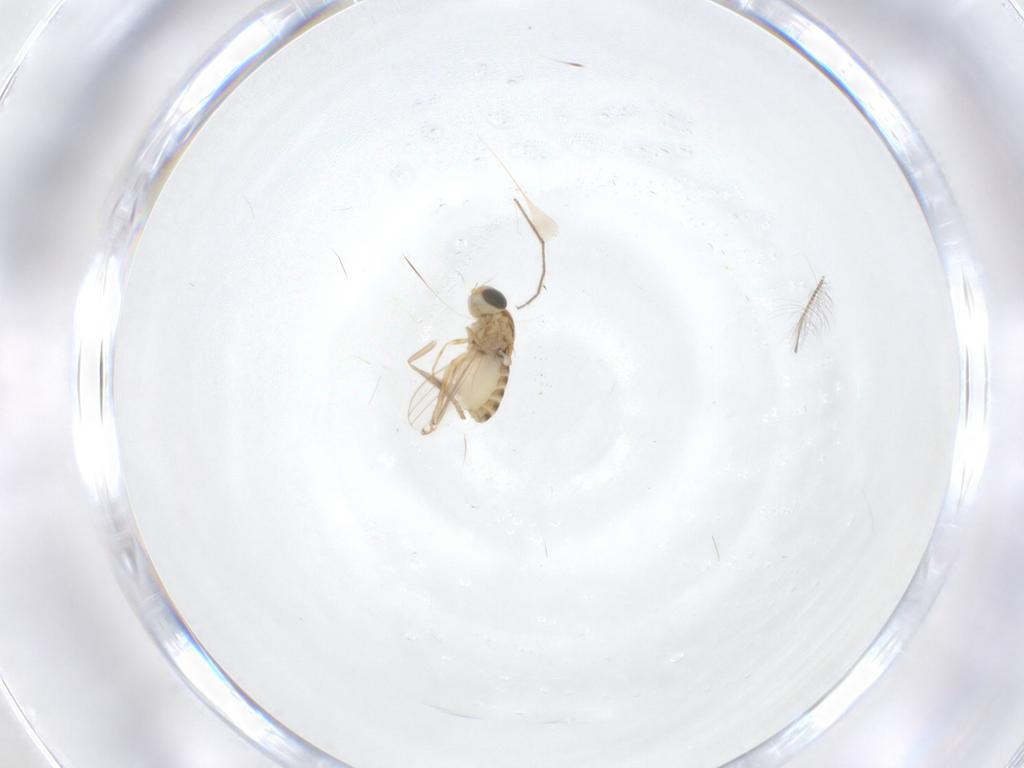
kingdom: Animalia
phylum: Arthropoda
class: Insecta
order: Diptera
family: Chyromyidae
